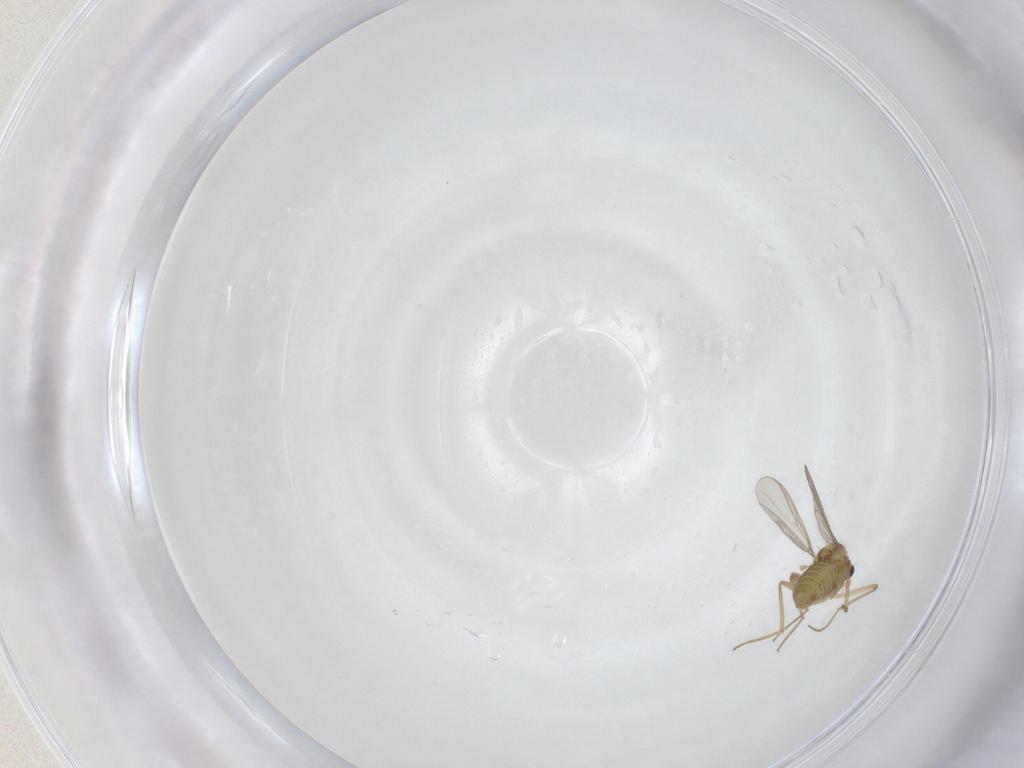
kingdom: Animalia
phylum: Arthropoda
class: Insecta
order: Diptera
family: Chironomidae
